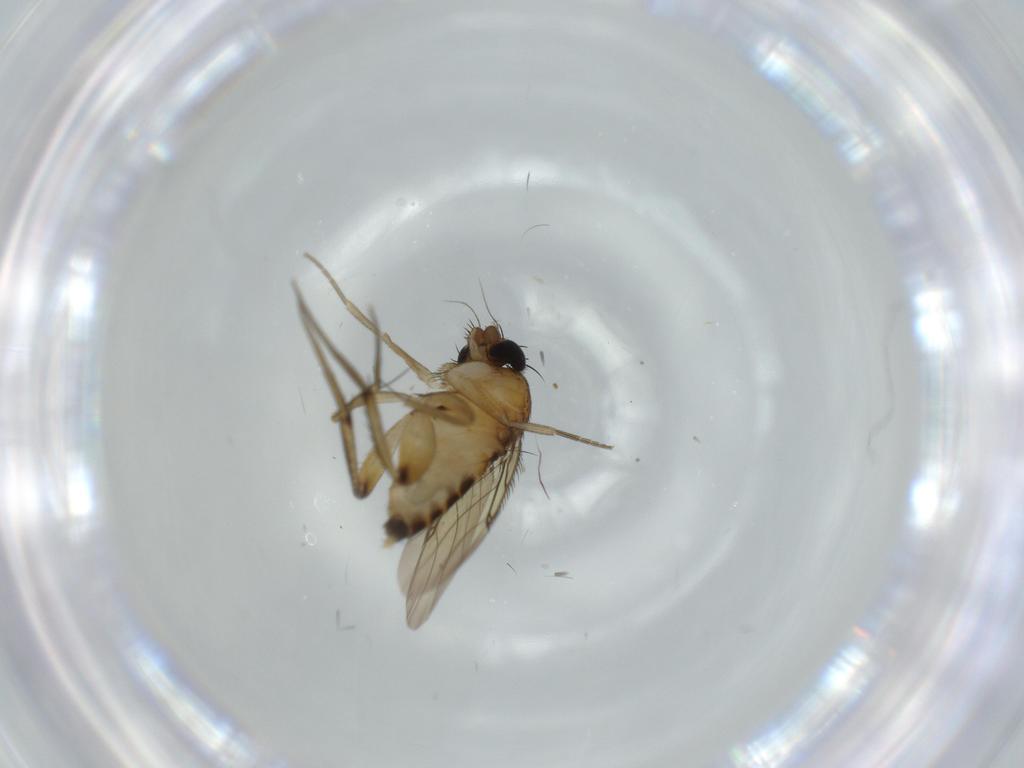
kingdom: Animalia
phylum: Arthropoda
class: Insecta
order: Diptera
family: Phoridae
